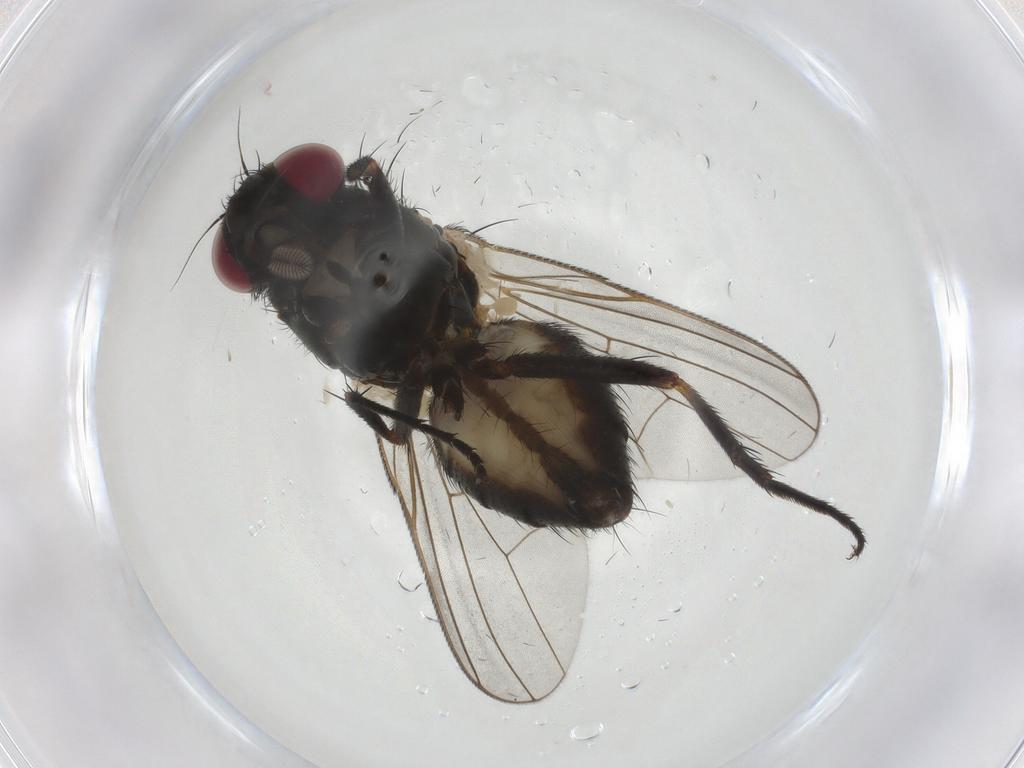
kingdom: Animalia
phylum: Arthropoda
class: Insecta
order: Diptera
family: Fannia
